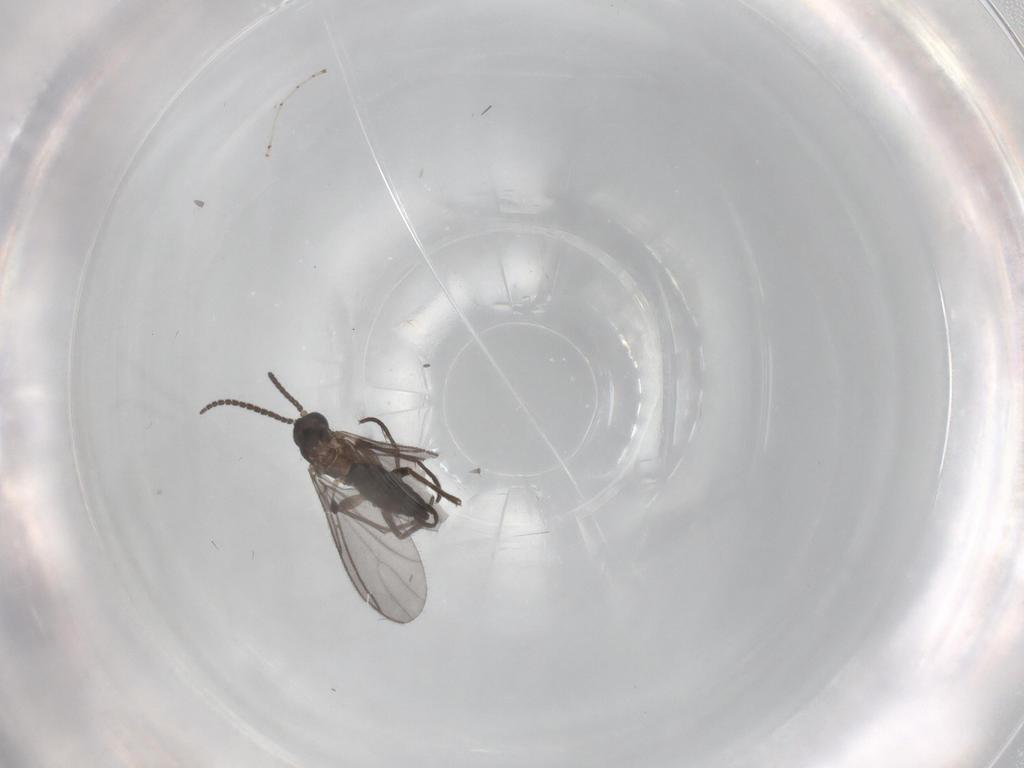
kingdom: Animalia
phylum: Arthropoda
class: Insecta
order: Diptera
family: Sciaridae
